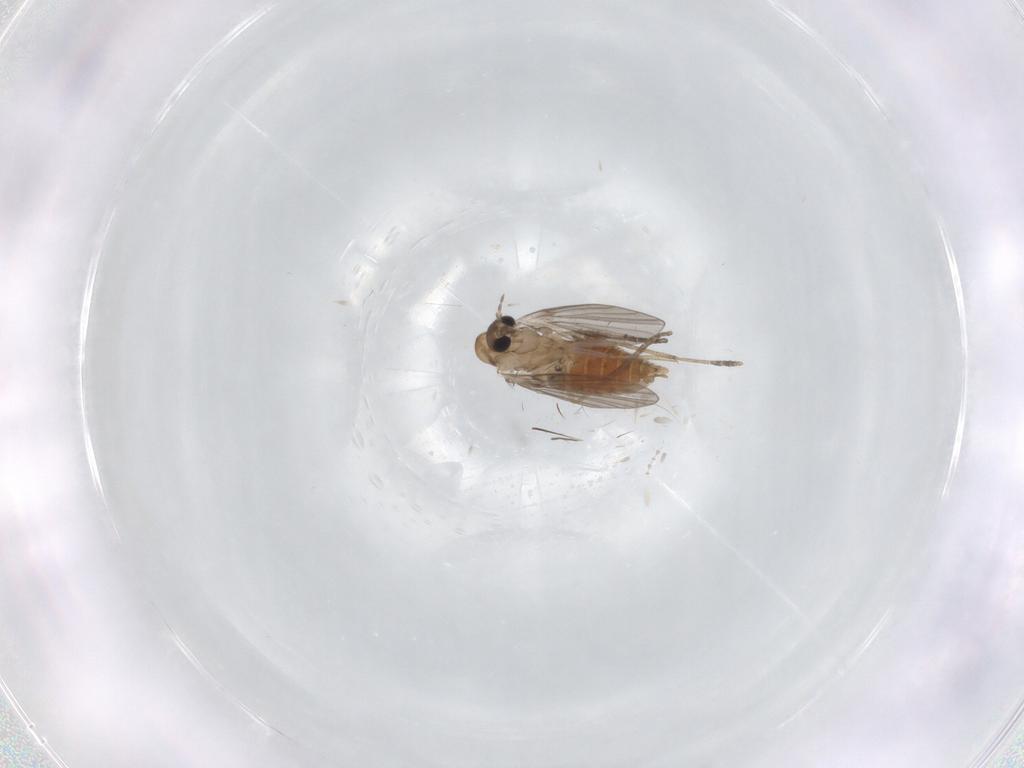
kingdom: Animalia
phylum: Arthropoda
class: Insecta
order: Diptera
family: Dolichopodidae
